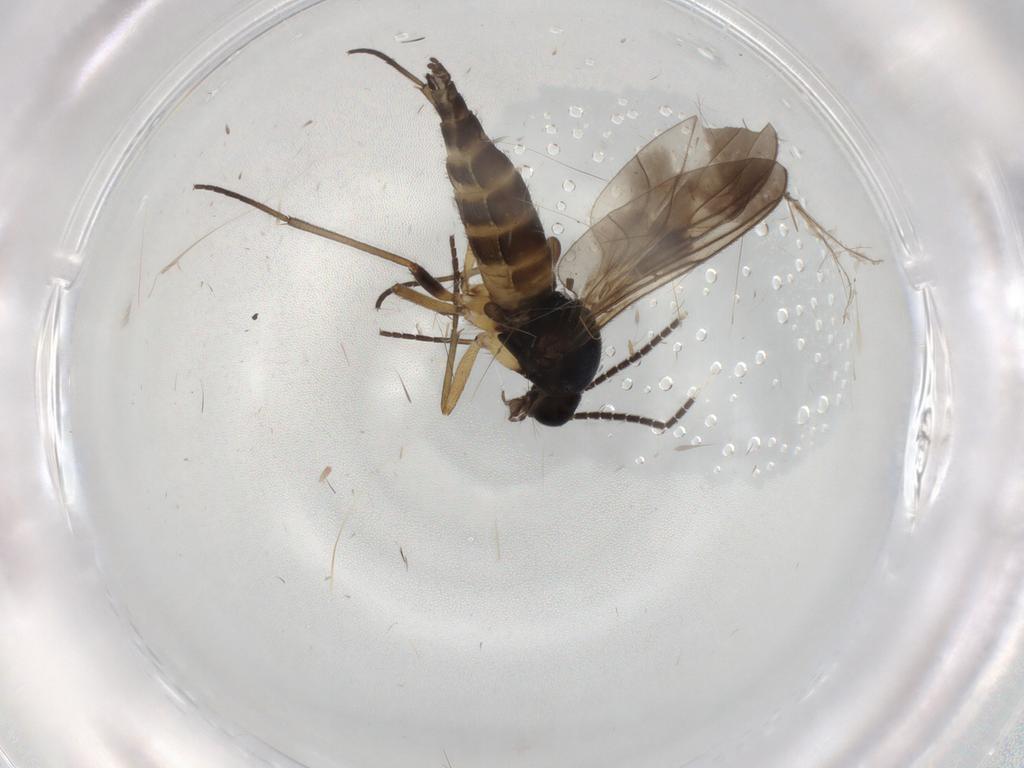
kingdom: Animalia
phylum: Arthropoda
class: Insecta
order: Diptera
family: Sciaridae
